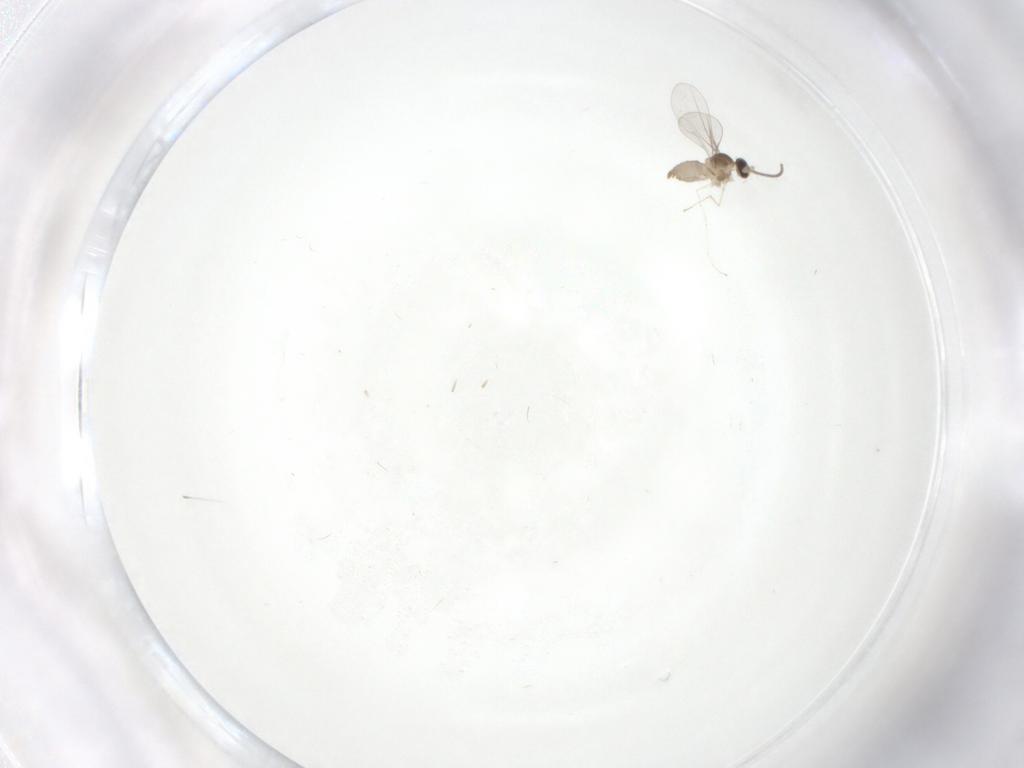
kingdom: Animalia
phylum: Arthropoda
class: Insecta
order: Diptera
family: Cecidomyiidae
